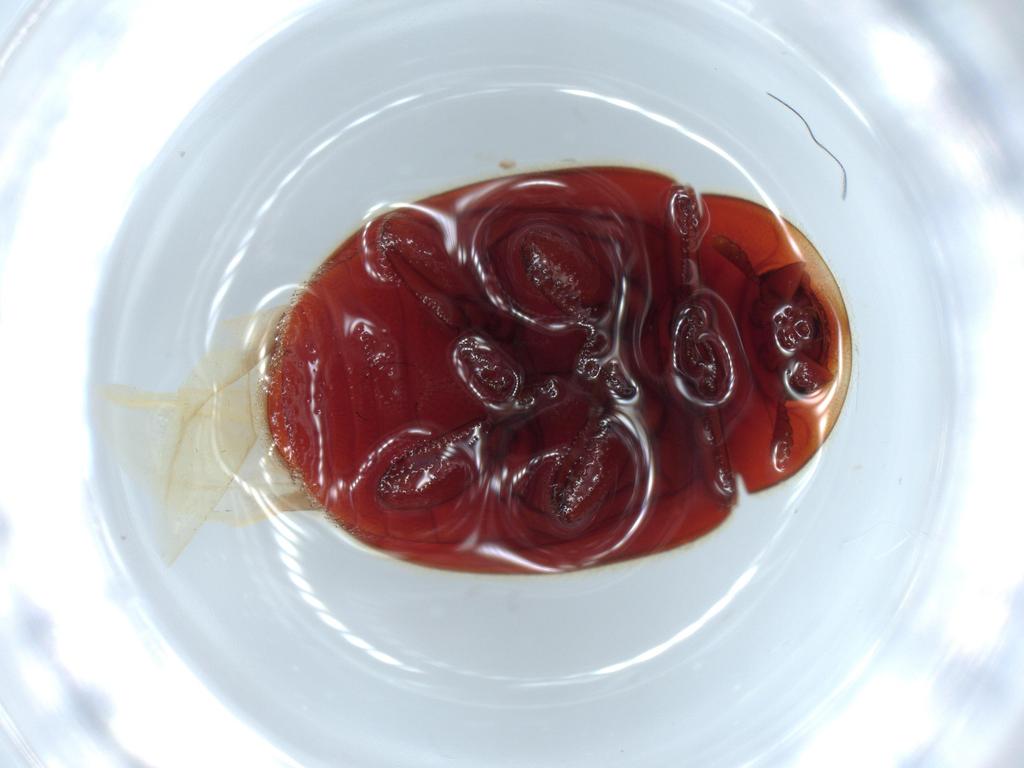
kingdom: Animalia
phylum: Arthropoda
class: Insecta
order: Coleoptera
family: Coccinellidae
